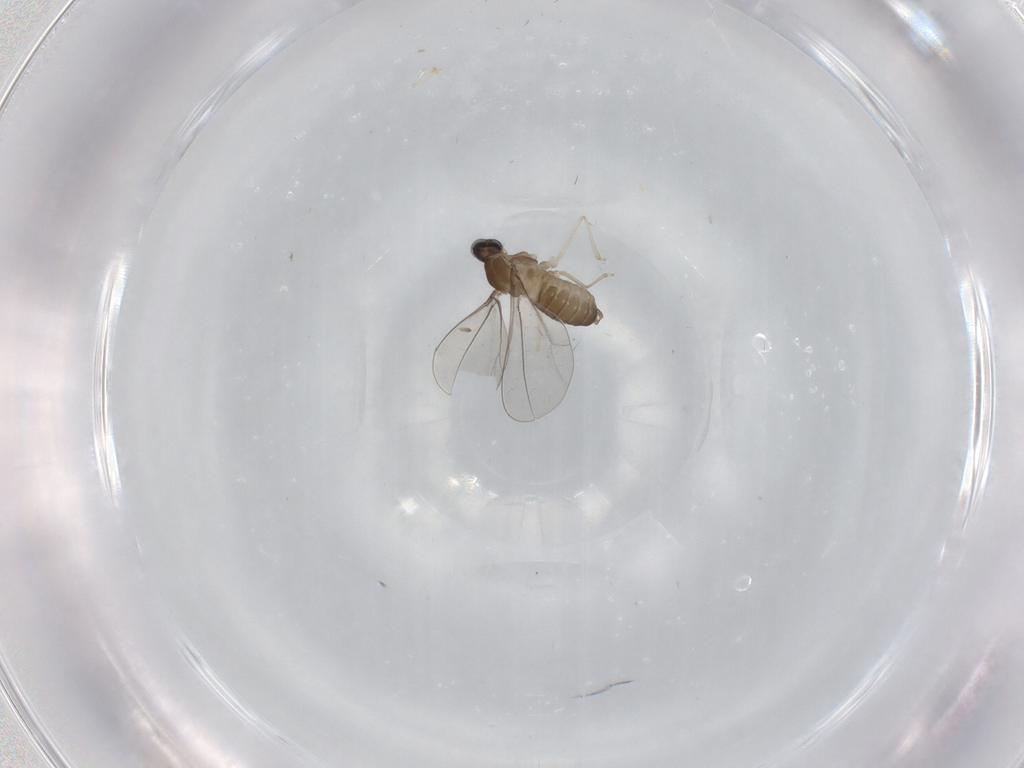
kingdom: Animalia
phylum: Arthropoda
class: Insecta
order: Diptera
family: Cecidomyiidae
